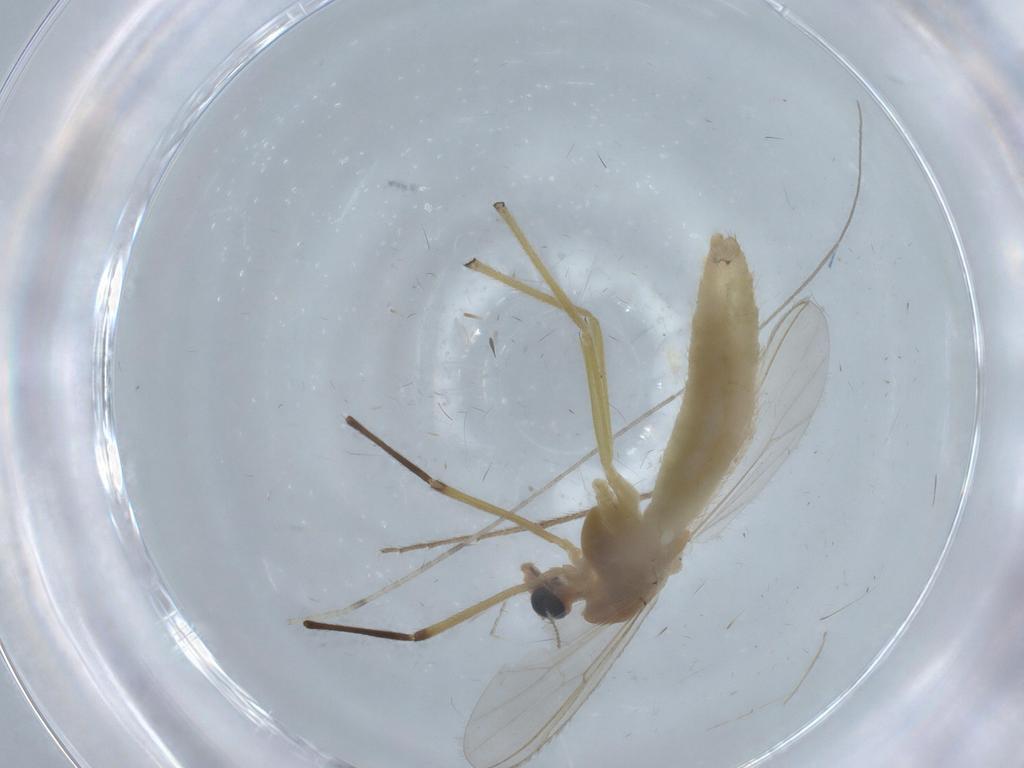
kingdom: Animalia
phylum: Arthropoda
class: Insecta
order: Diptera
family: Chironomidae
